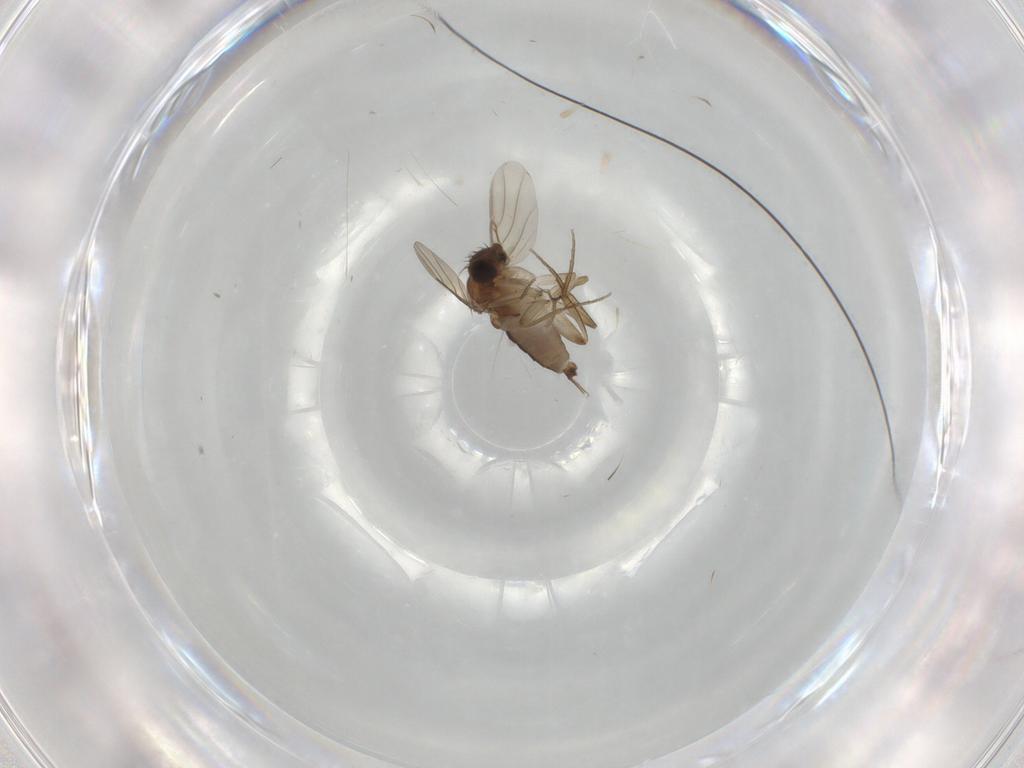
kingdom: Animalia
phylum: Arthropoda
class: Insecta
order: Diptera
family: Phoridae
